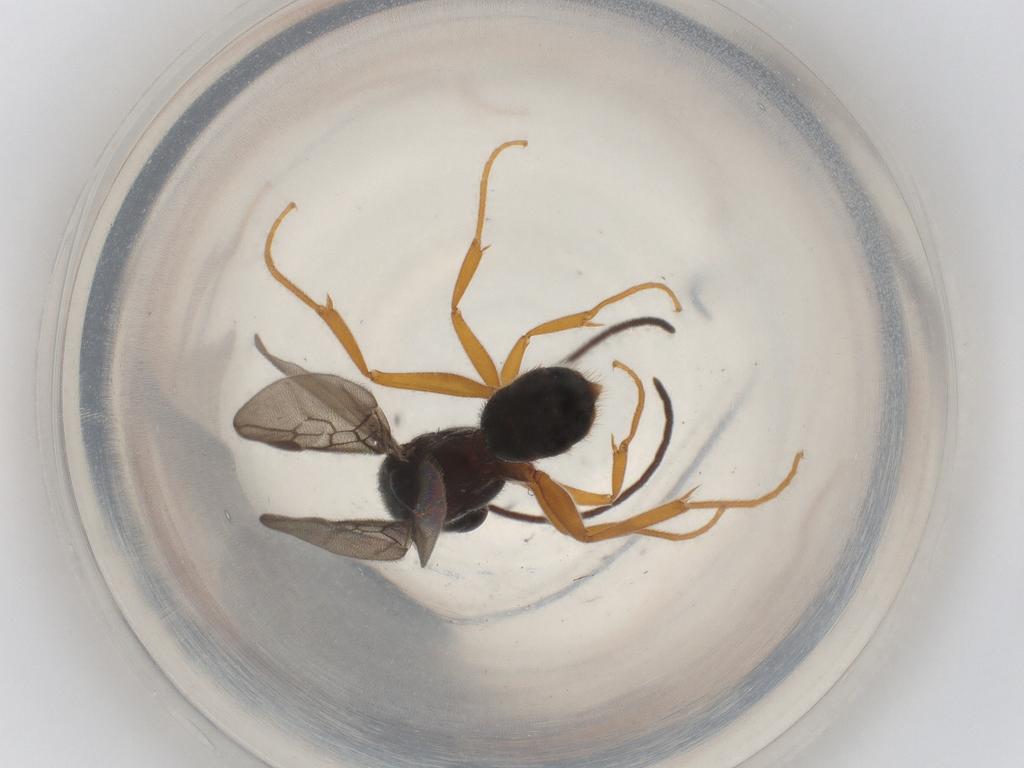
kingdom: Animalia
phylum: Arthropoda
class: Insecta
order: Hymenoptera
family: Formicidae
